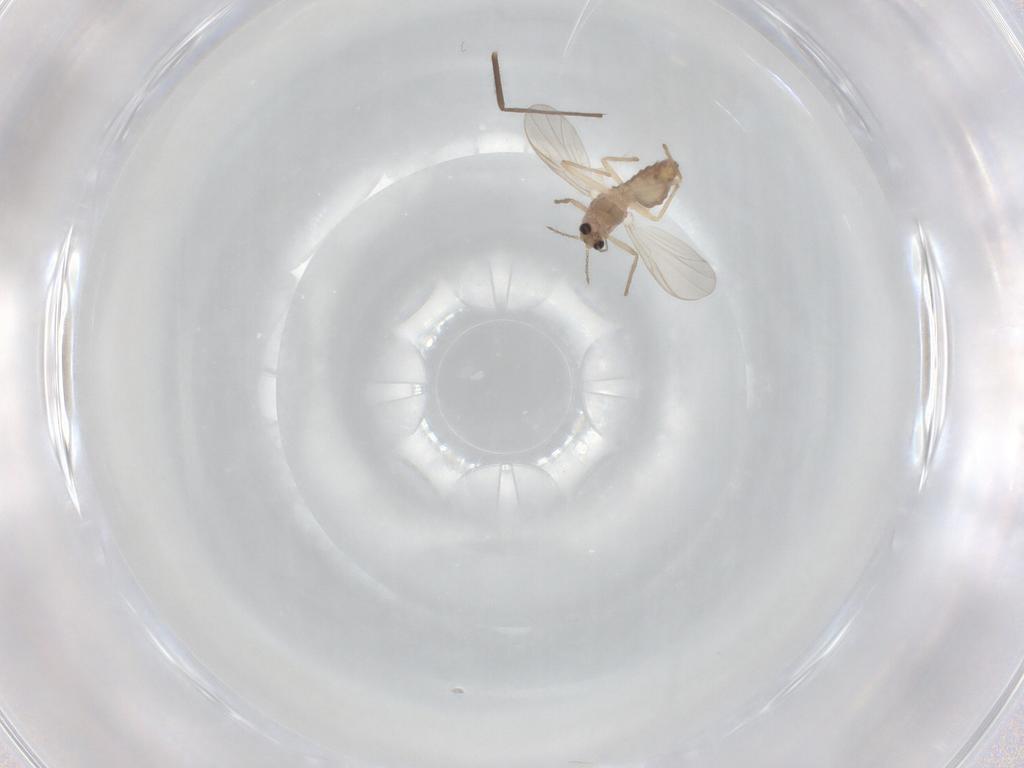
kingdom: Animalia
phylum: Arthropoda
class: Insecta
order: Diptera
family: Chironomidae
